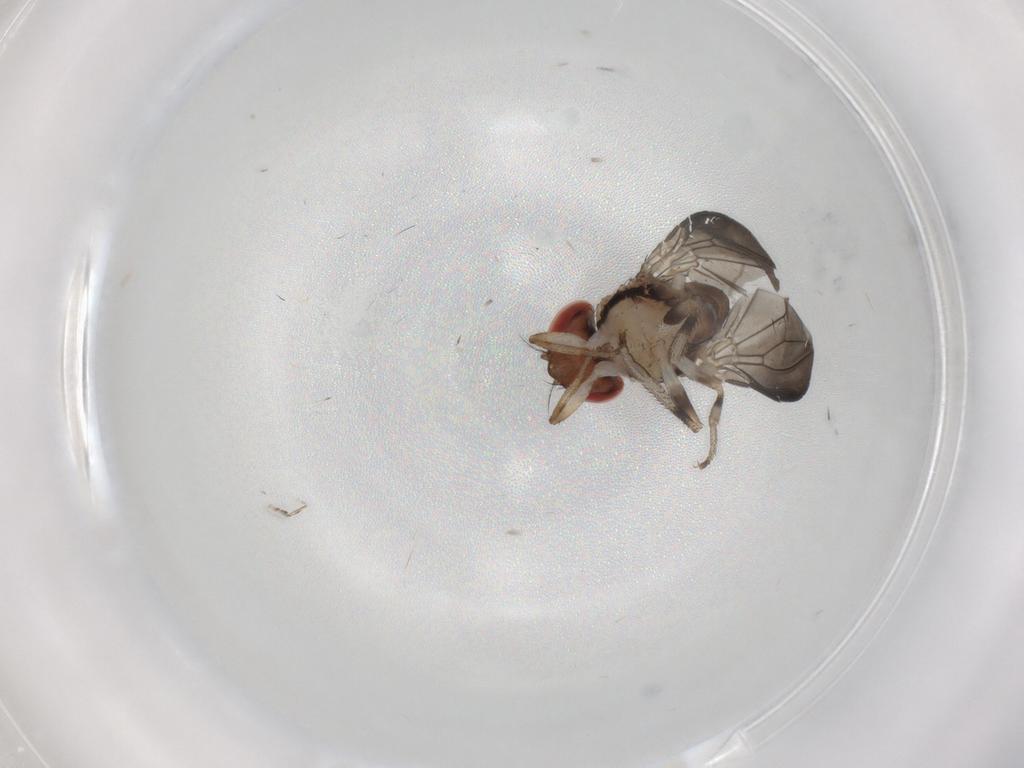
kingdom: Animalia
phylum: Arthropoda
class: Insecta
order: Diptera
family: Drosophilidae
